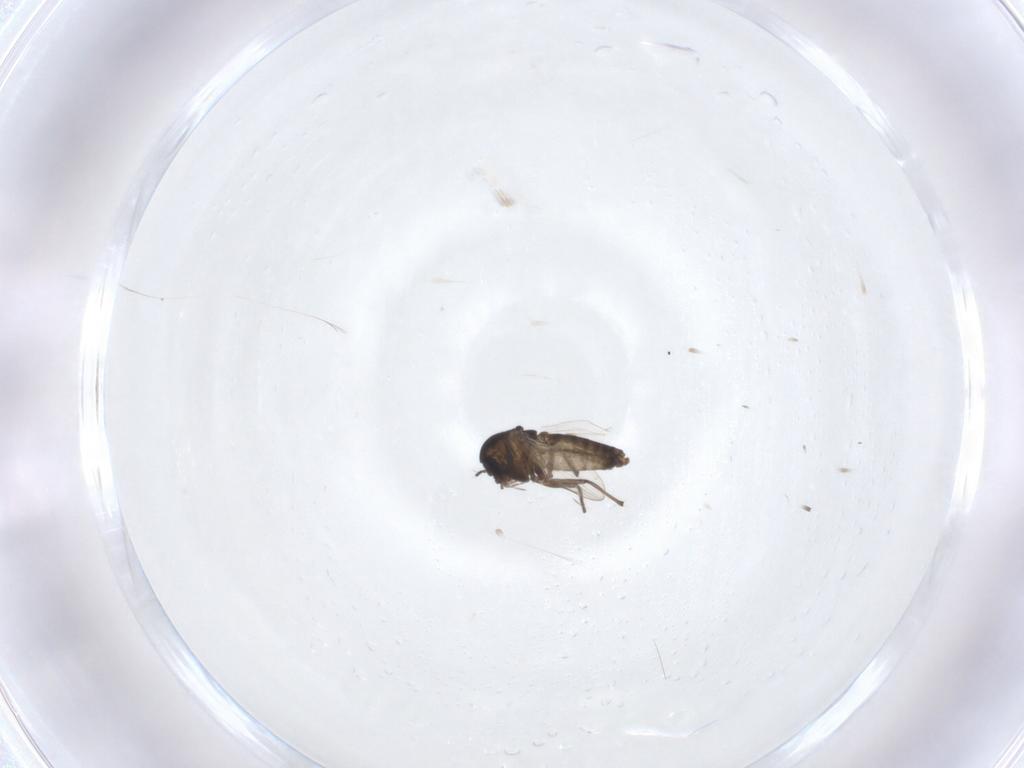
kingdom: Animalia
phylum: Arthropoda
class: Insecta
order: Diptera
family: Chironomidae
